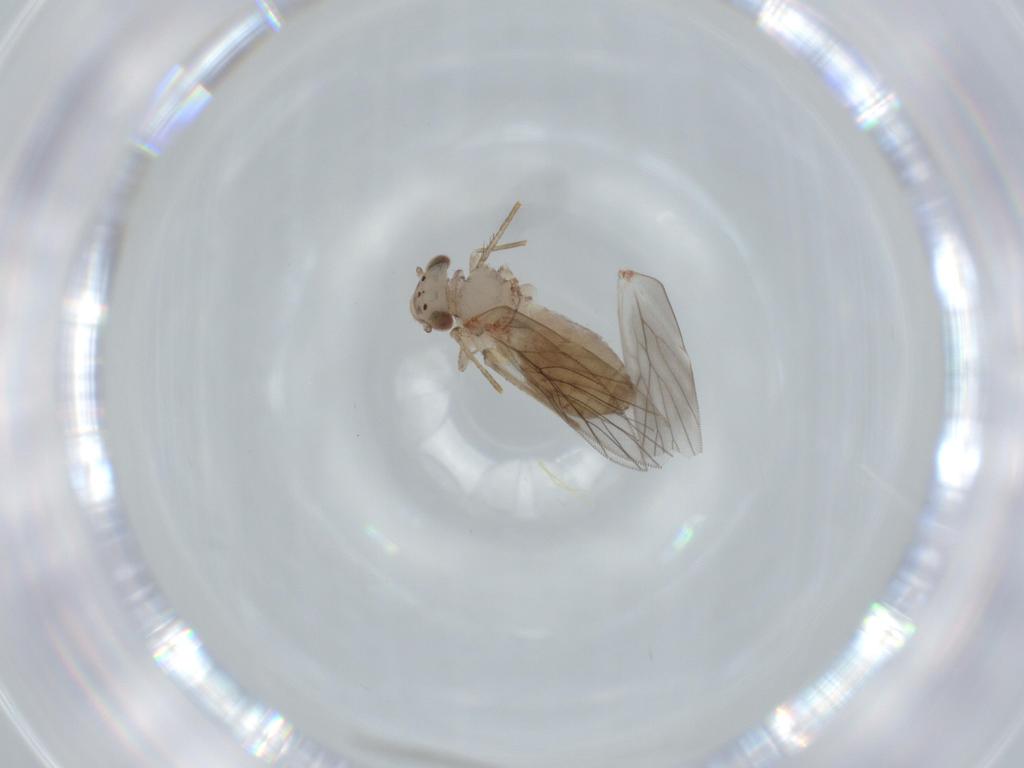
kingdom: Animalia
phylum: Arthropoda
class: Insecta
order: Psocodea
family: Lepidopsocidae
